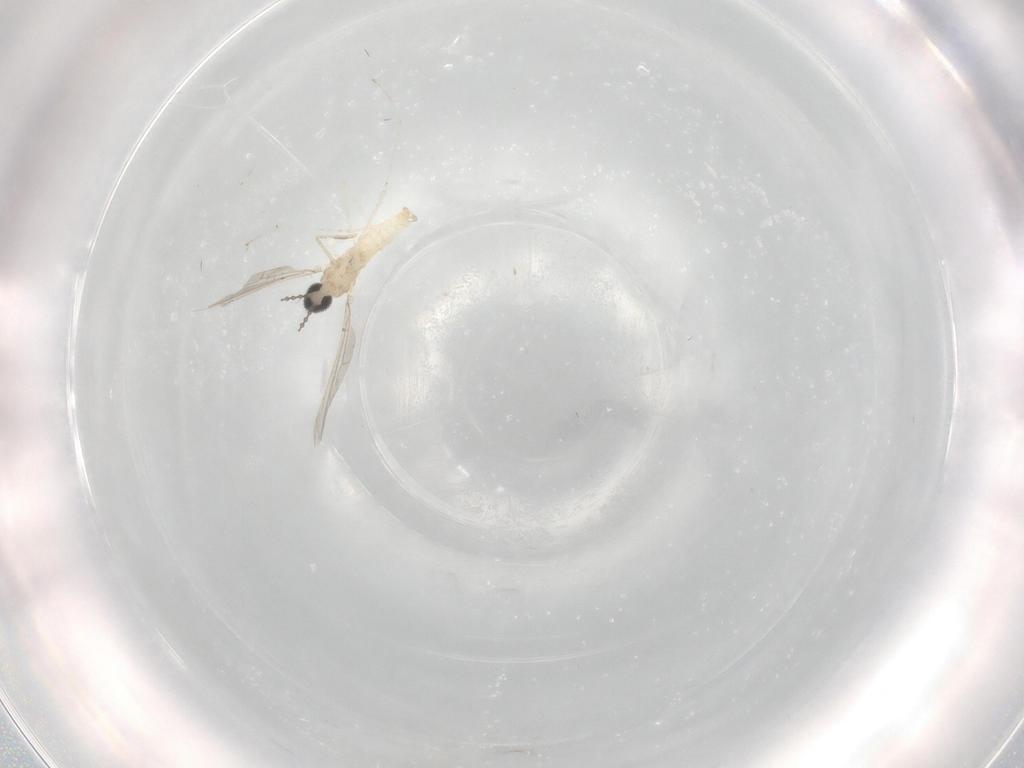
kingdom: Animalia
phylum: Arthropoda
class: Insecta
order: Diptera
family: Cecidomyiidae
